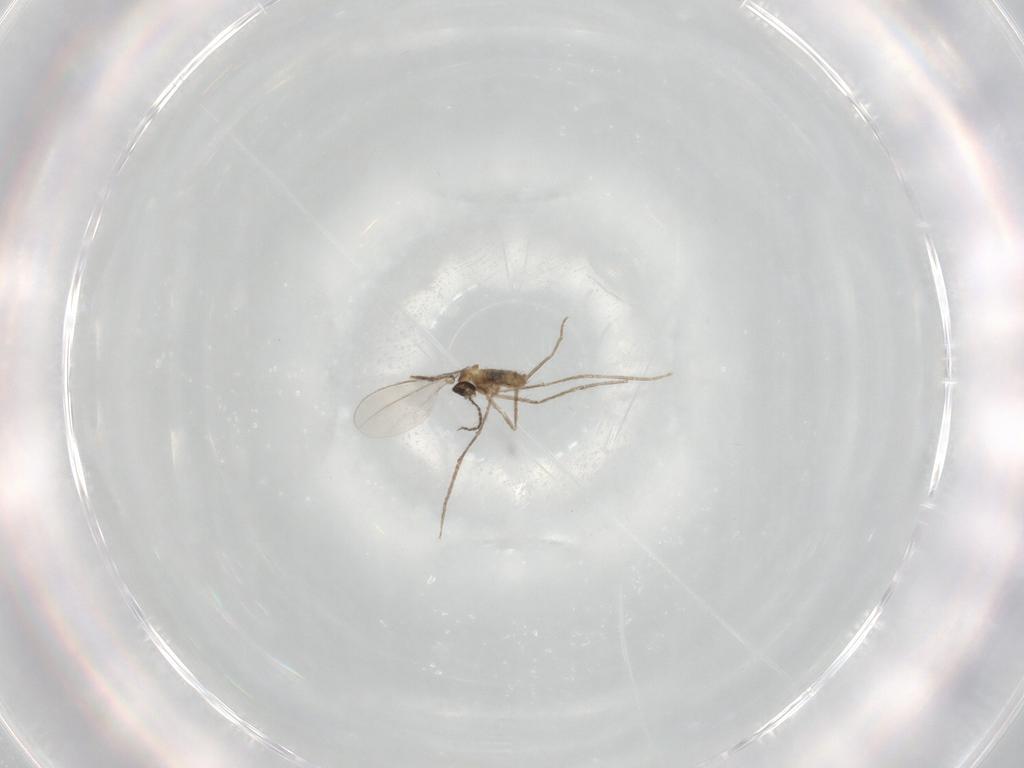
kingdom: Animalia
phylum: Arthropoda
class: Insecta
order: Diptera
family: Cecidomyiidae
